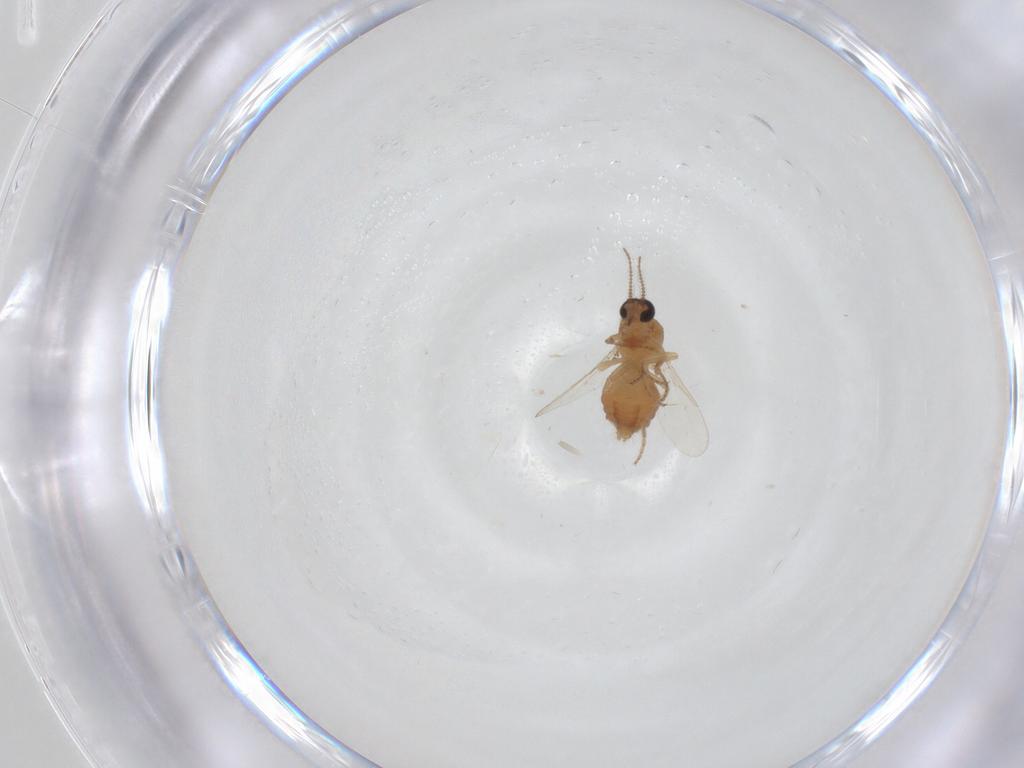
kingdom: Animalia
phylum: Arthropoda
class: Insecta
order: Diptera
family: Ceratopogonidae
